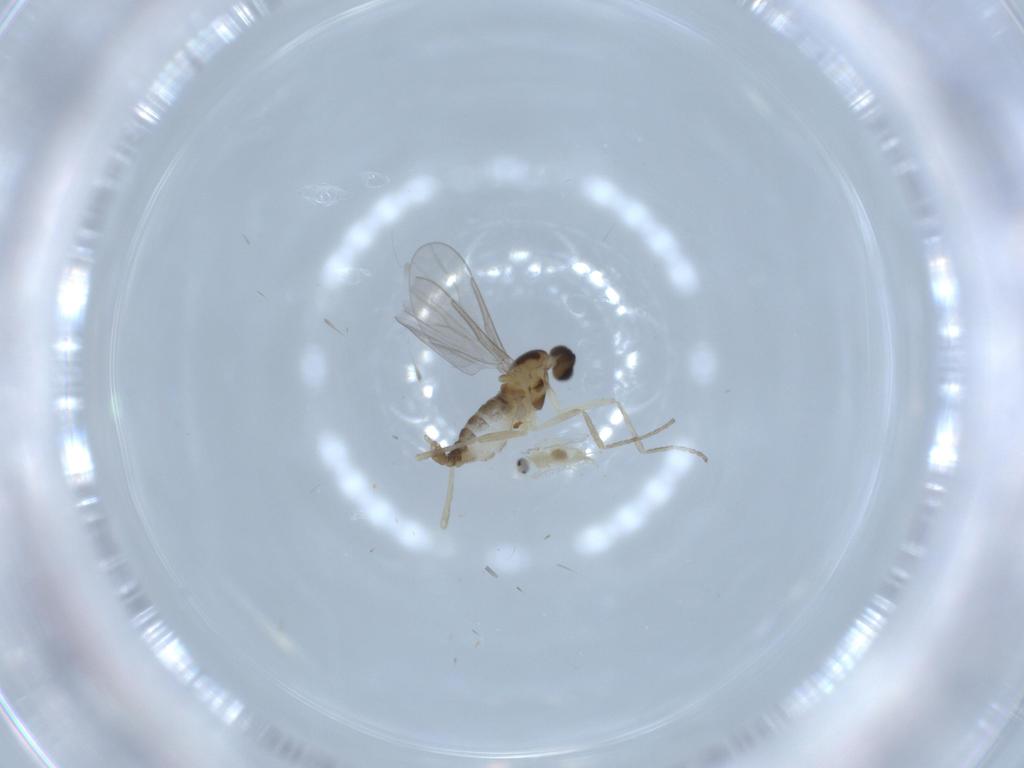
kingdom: Animalia
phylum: Arthropoda
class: Insecta
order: Diptera
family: Cecidomyiidae
